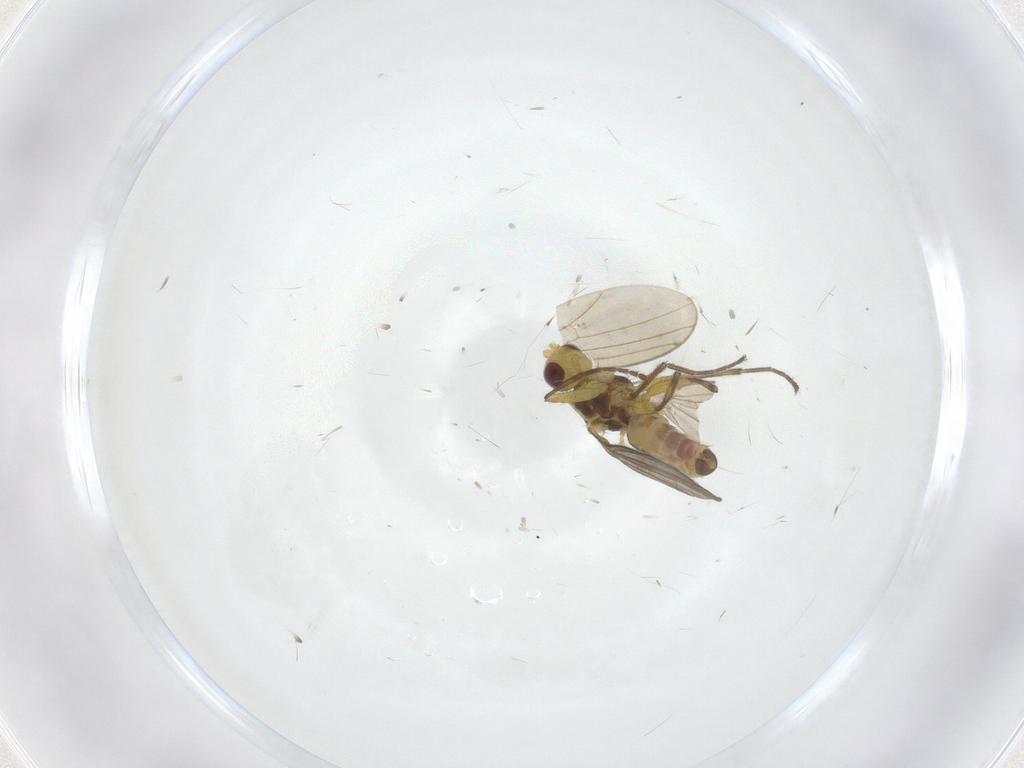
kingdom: Animalia
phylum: Arthropoda
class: Insecta
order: Diptera
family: Agromyzidae
